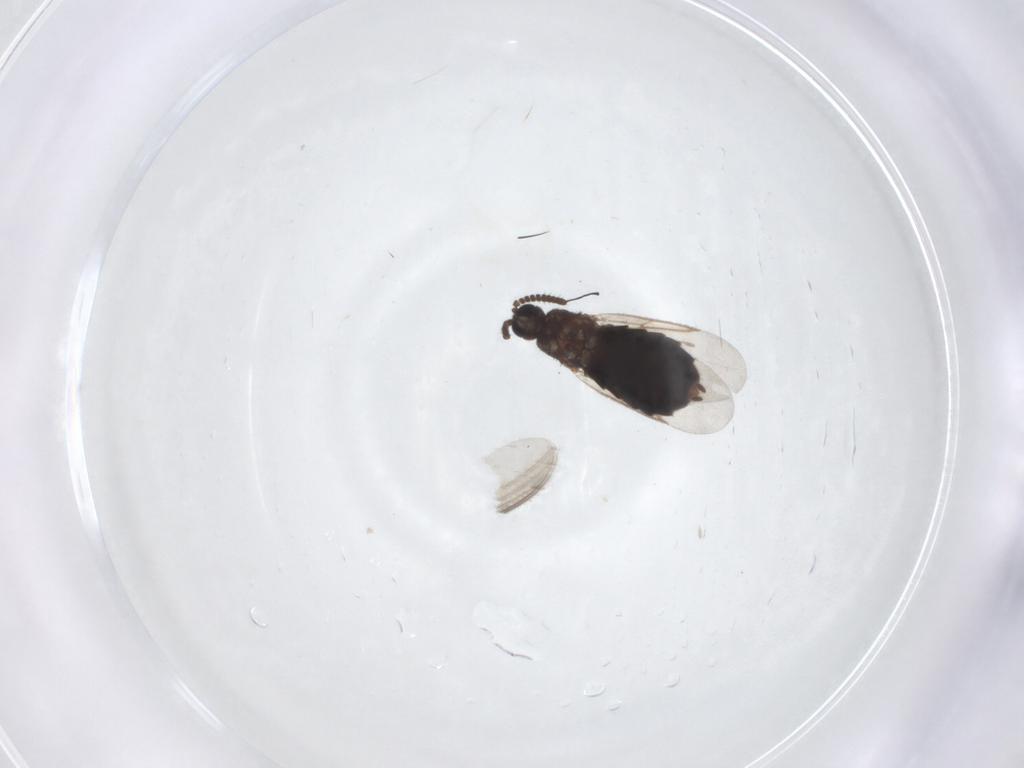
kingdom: Animalia
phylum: Arthropoda
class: Insecta
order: Diptera
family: Scatopsidae
